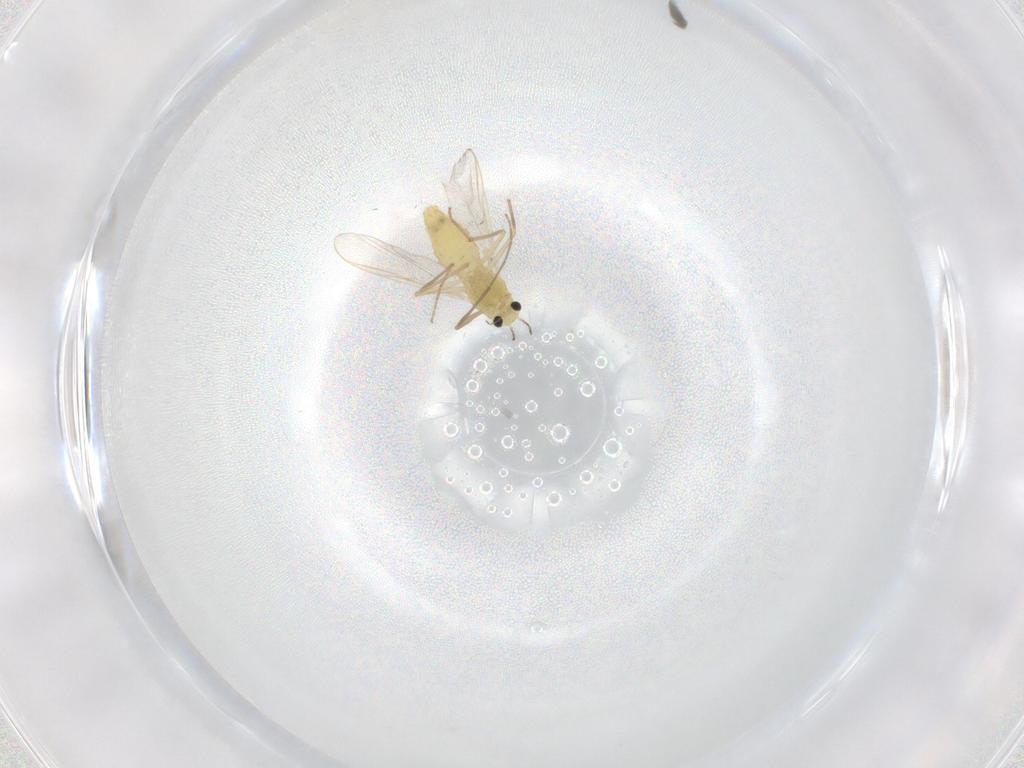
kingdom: Animalia
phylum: Arthropoda
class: Insecta
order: Diptera
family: Chironomidae
